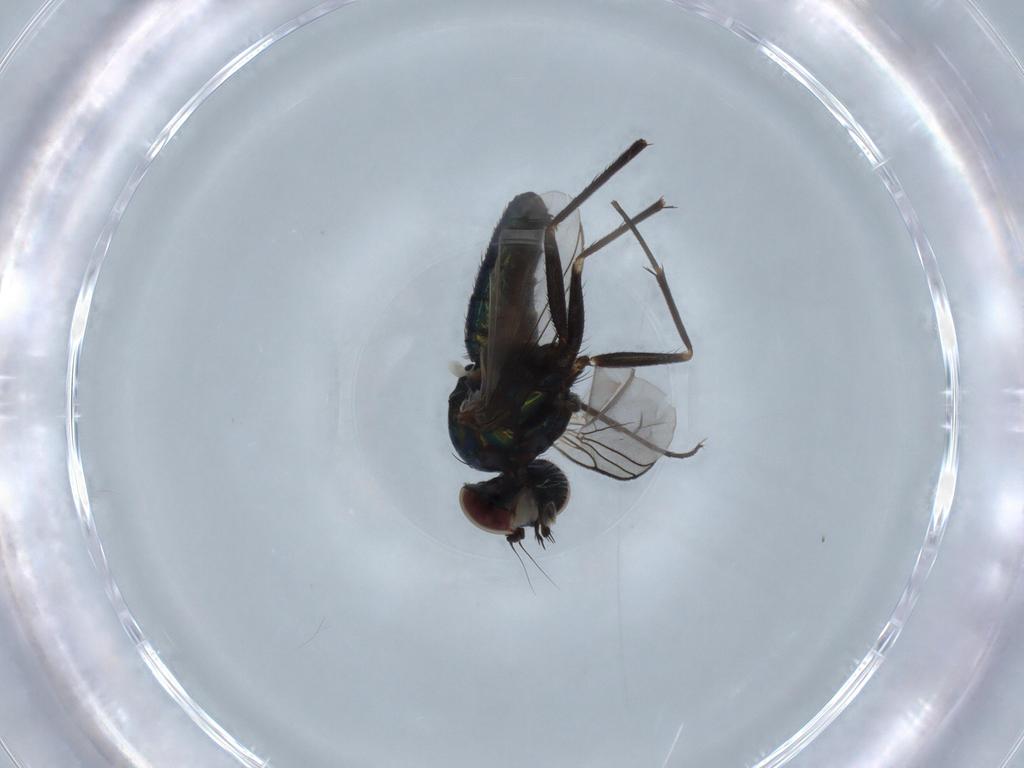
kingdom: Animalia
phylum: Arthropoda
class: Insecta
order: Diptera
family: Dolichopodidae
